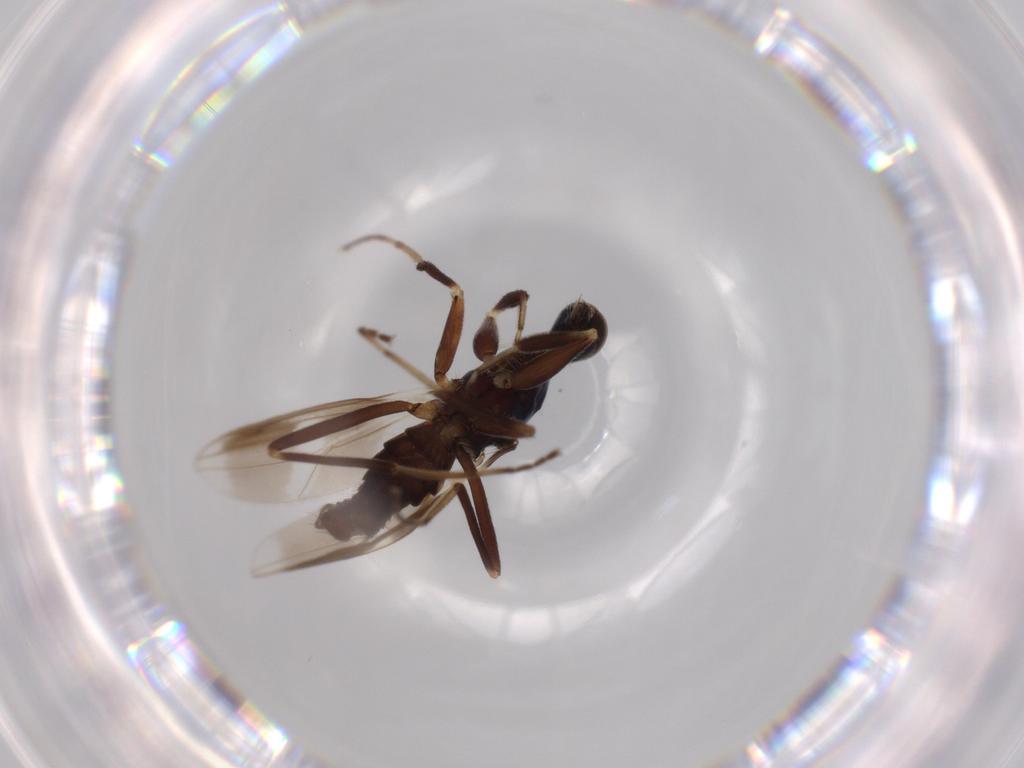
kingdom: Animalia
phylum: Arthropoda
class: Insecta
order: Diptera
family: Hybotidae
